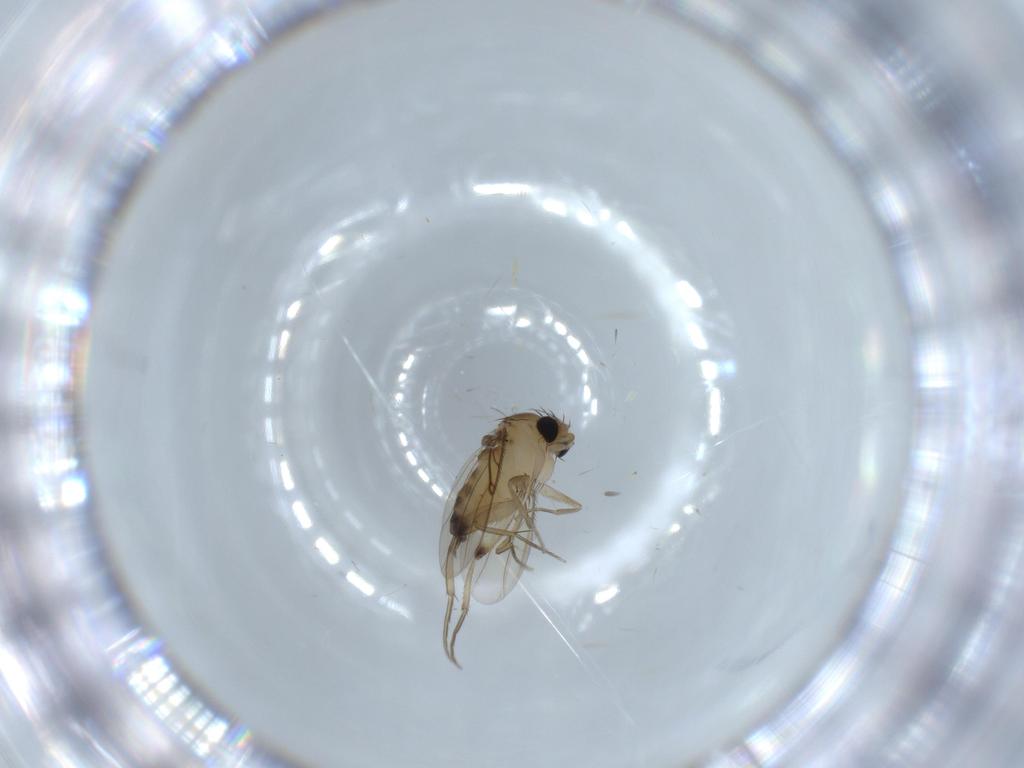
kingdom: Animalia
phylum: Arthropoda
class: Insecta
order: Diptera
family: Phoridae
